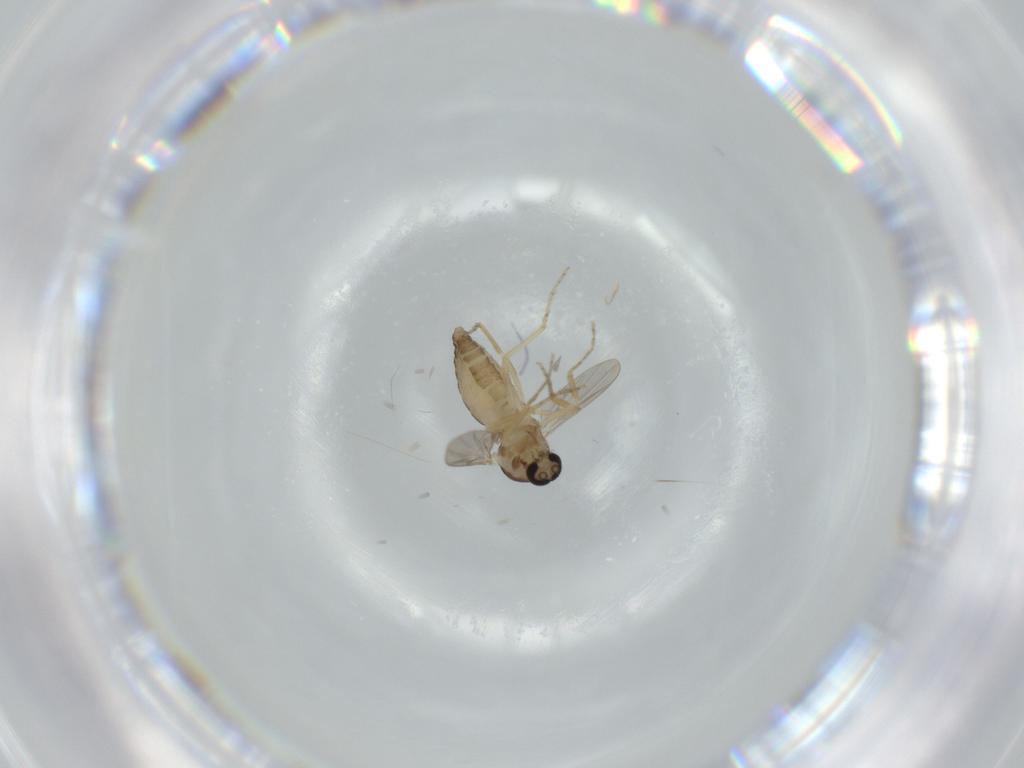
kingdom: Animalia
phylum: Arthropoda
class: Insecta
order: Diptera
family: Ceratopogonidae
